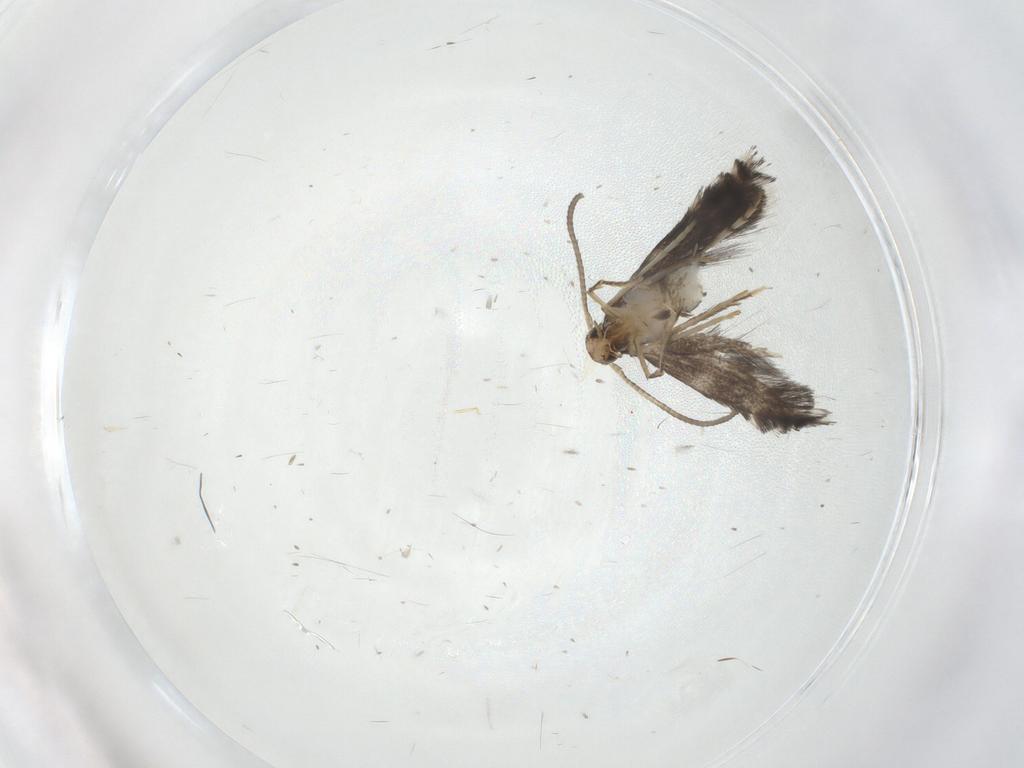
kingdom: Animalia
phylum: Arthropoda
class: Insecta
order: Lepidoptera
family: Gracillariidae
